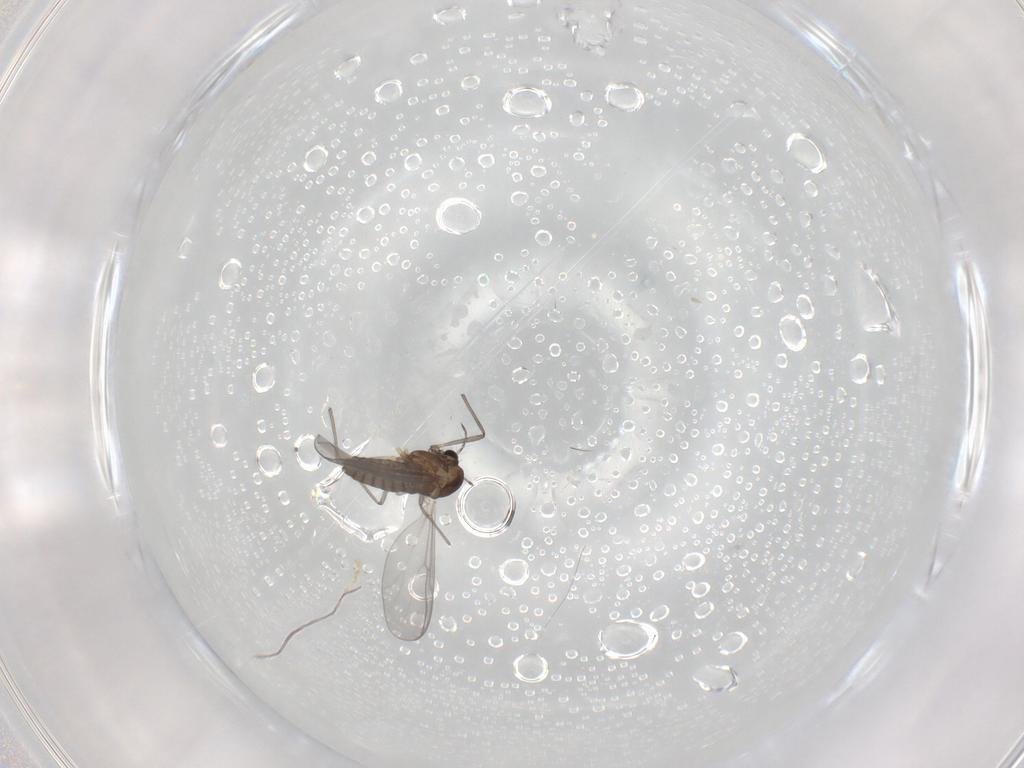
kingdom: Animalia
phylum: Arthropoda
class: Insecta
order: Diptera
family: Chironomidae
